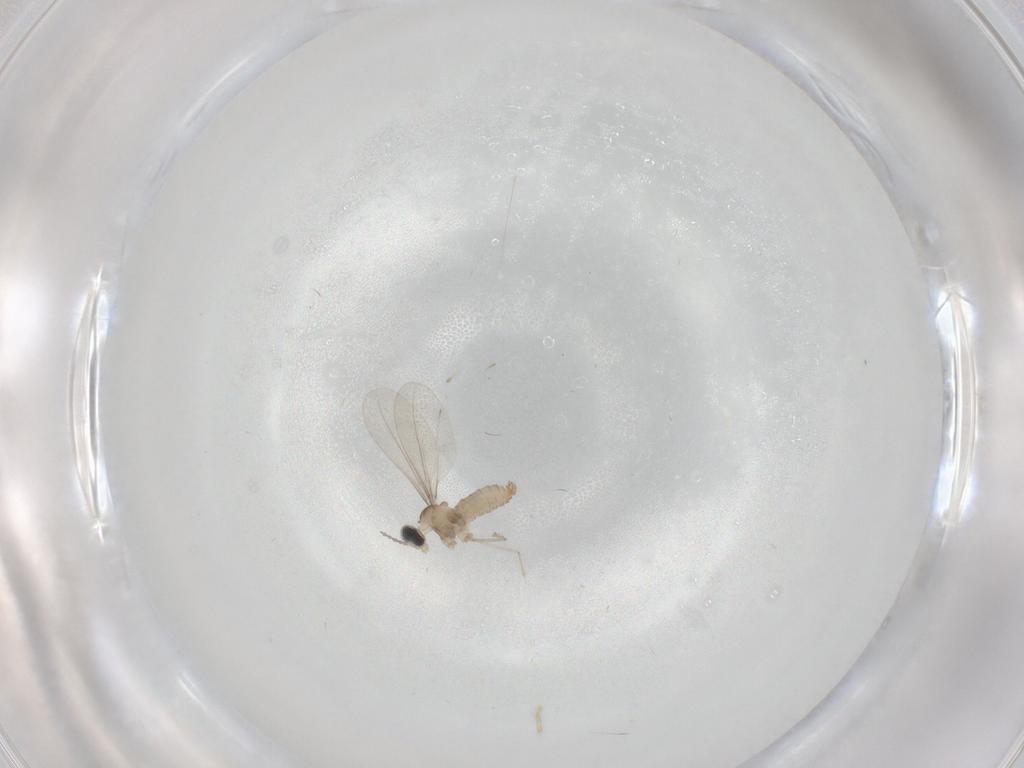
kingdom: Animalia
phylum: Arthropoda
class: Insecta
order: Diptera
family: Cecidomyiidae
